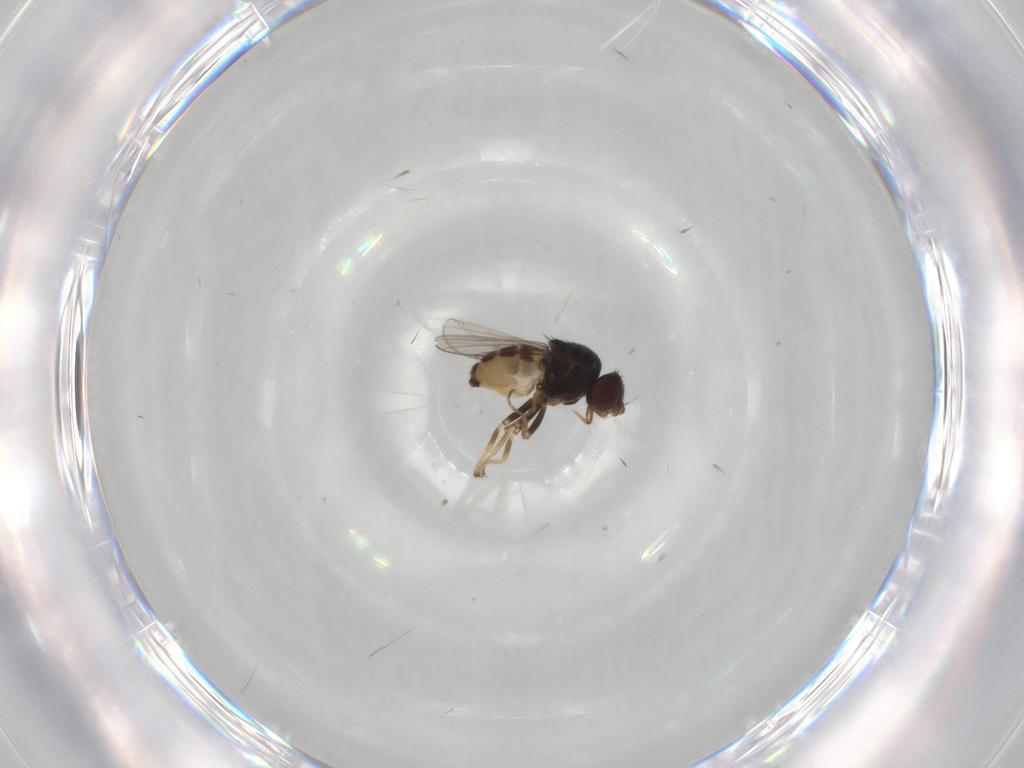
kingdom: Animalia
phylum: Arthropoda
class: Insecta
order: Diptera
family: Chloropidae
